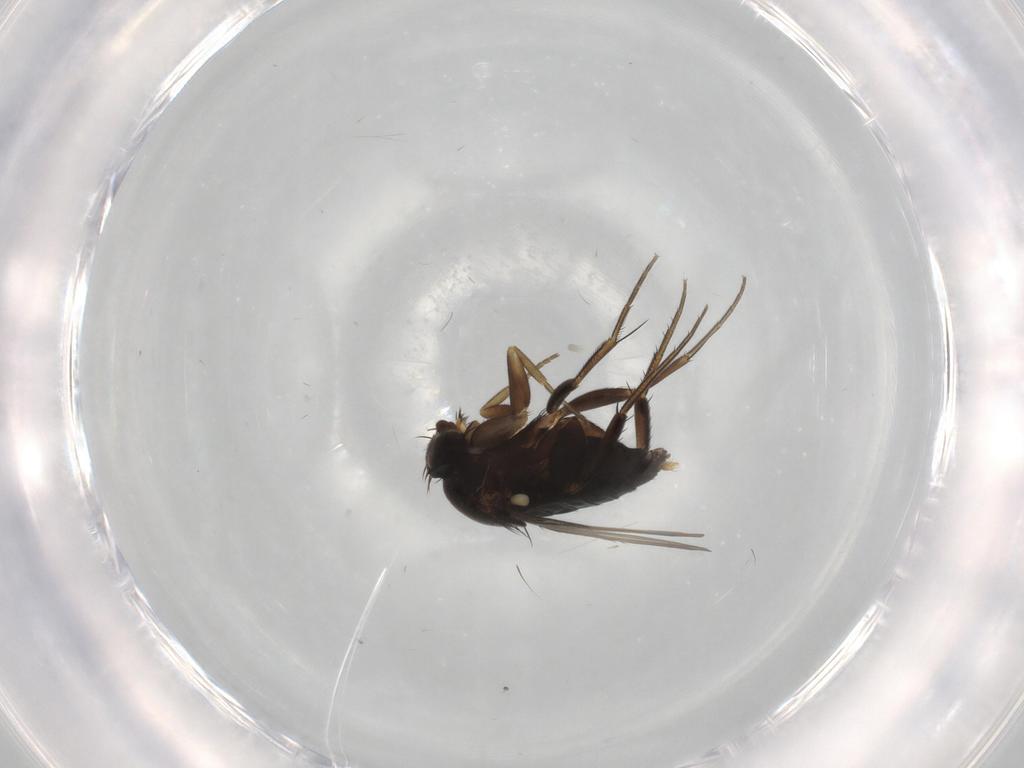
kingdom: Animalia
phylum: Arthropoda
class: Insecta
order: Diptera
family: Phoridae
